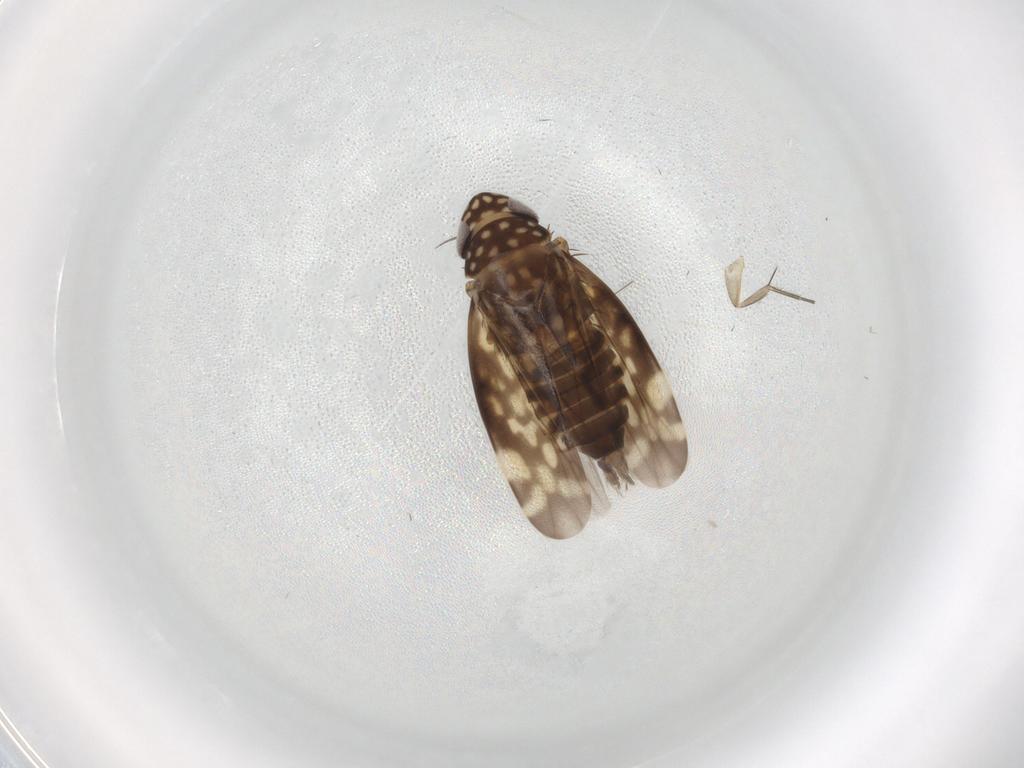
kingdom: Animalia
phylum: Arthropoda
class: Insecta
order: Hemiptera
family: Cicadellidae
